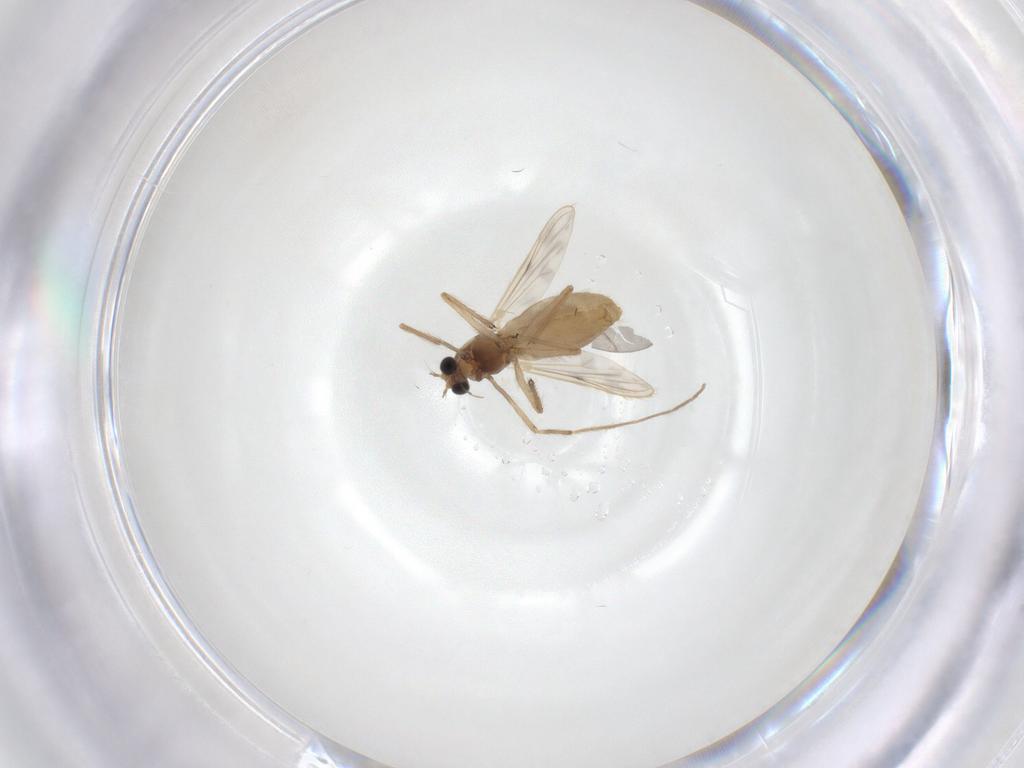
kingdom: Animalia
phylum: Arthropoda
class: Insecta
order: Diptera
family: Chironomidae
